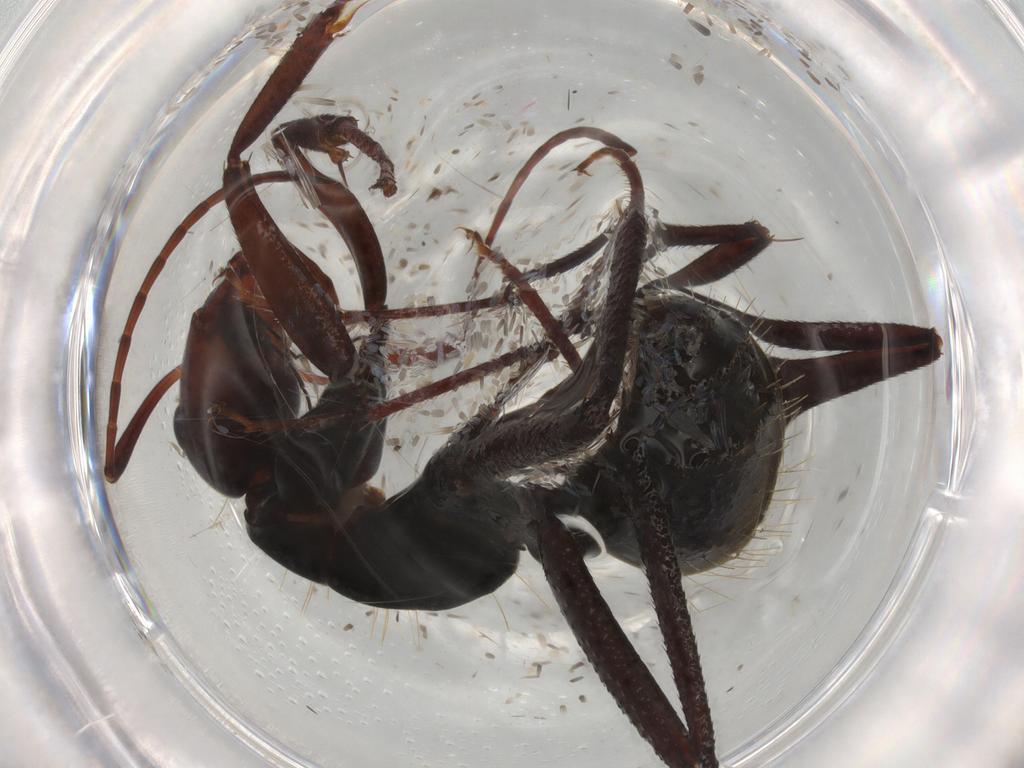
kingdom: Animalia
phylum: Arthropoda
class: Insecta
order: Hymenoptera
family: Formicidae
